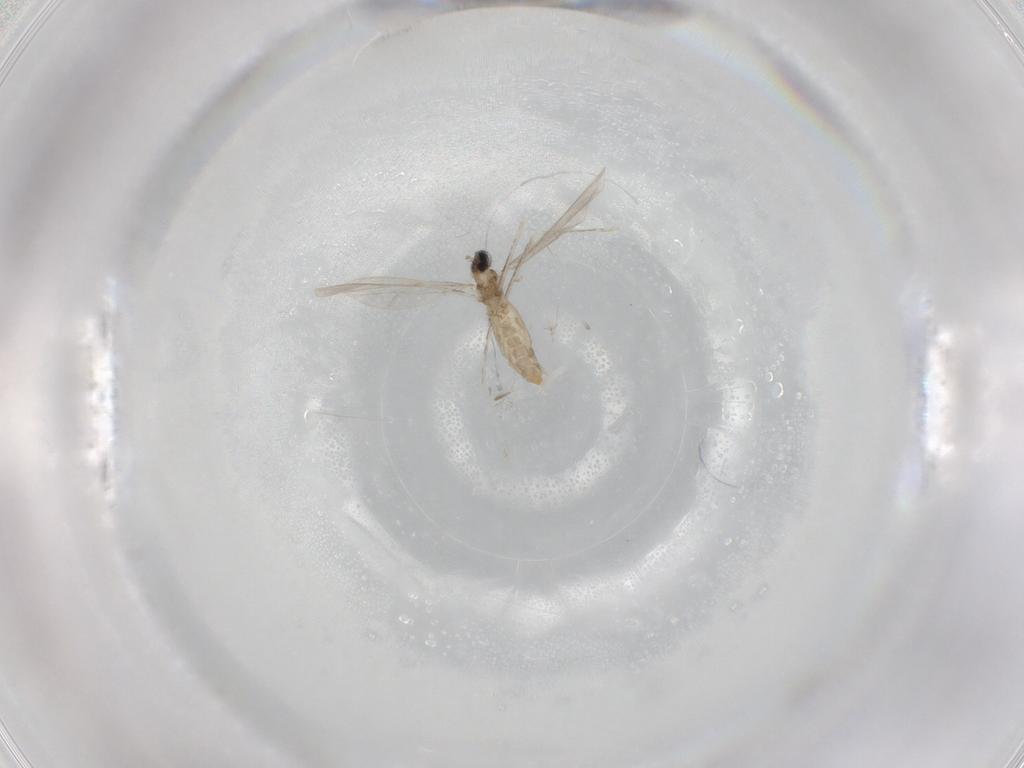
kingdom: Animalia
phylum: Arthropoda
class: Insecta
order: Diptera
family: Cecidomyiidae
